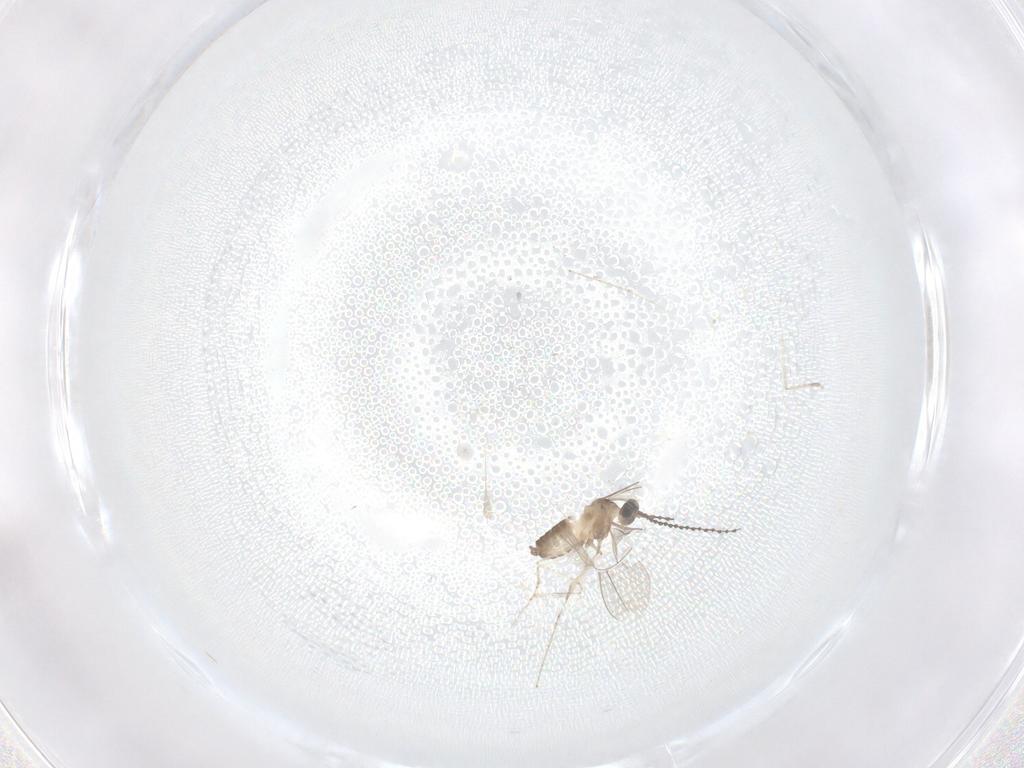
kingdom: Animalia
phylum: Arthropoda
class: Insecta
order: Diptera
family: Cecidomyiidae
